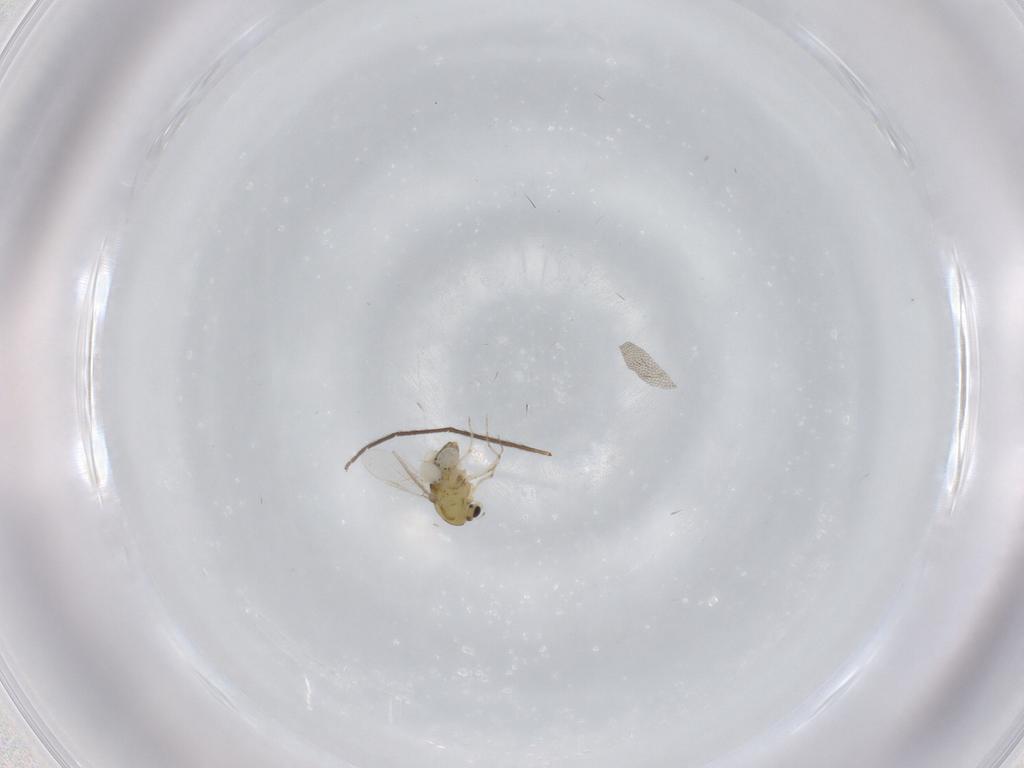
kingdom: Animalia
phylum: Arthropoda
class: Insecta
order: Diptera
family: Chironomidae
